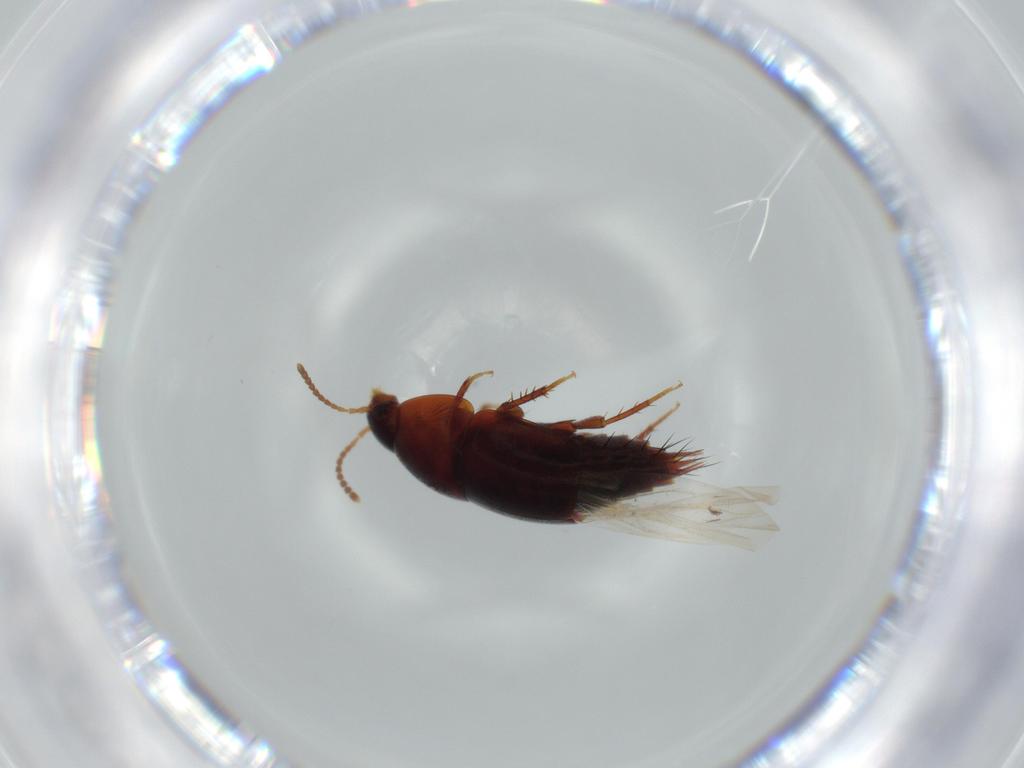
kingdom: Animalia
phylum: Arthropoda
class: Insecta
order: Coleoptera
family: Staphylinidae
